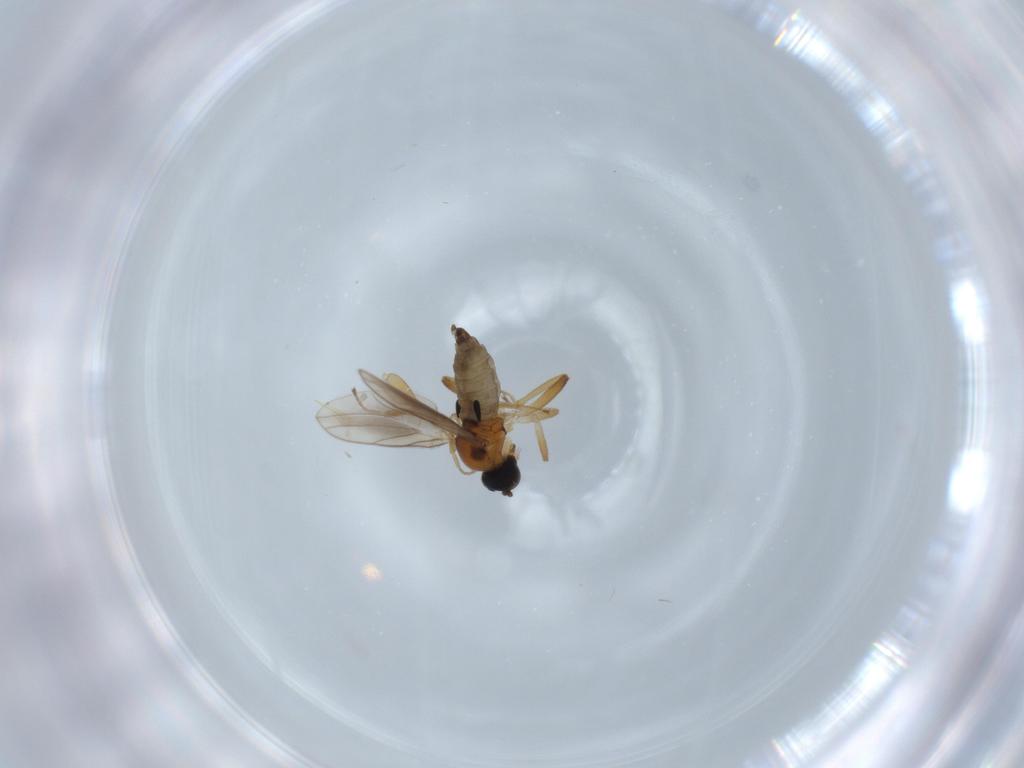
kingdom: Animalia
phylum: Arthropoda
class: Insecta
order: Diptera
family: Hybotidae
